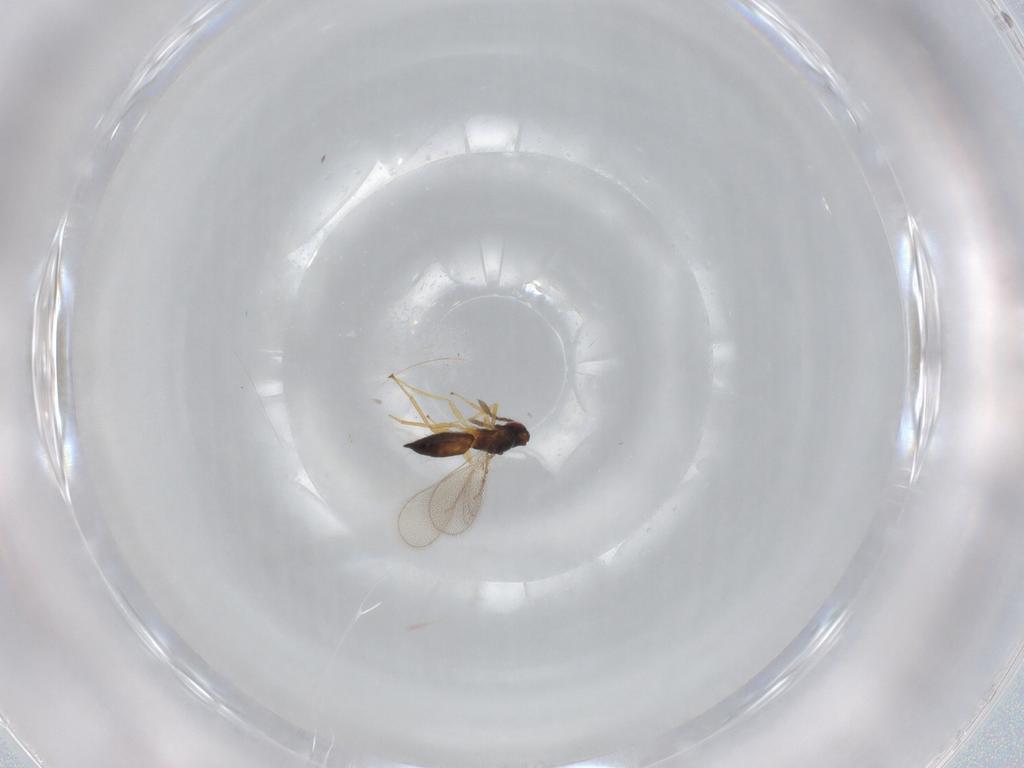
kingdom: Animalia
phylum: Arthropoda
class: Insecta
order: Hymenoptera
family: Eulophidae
